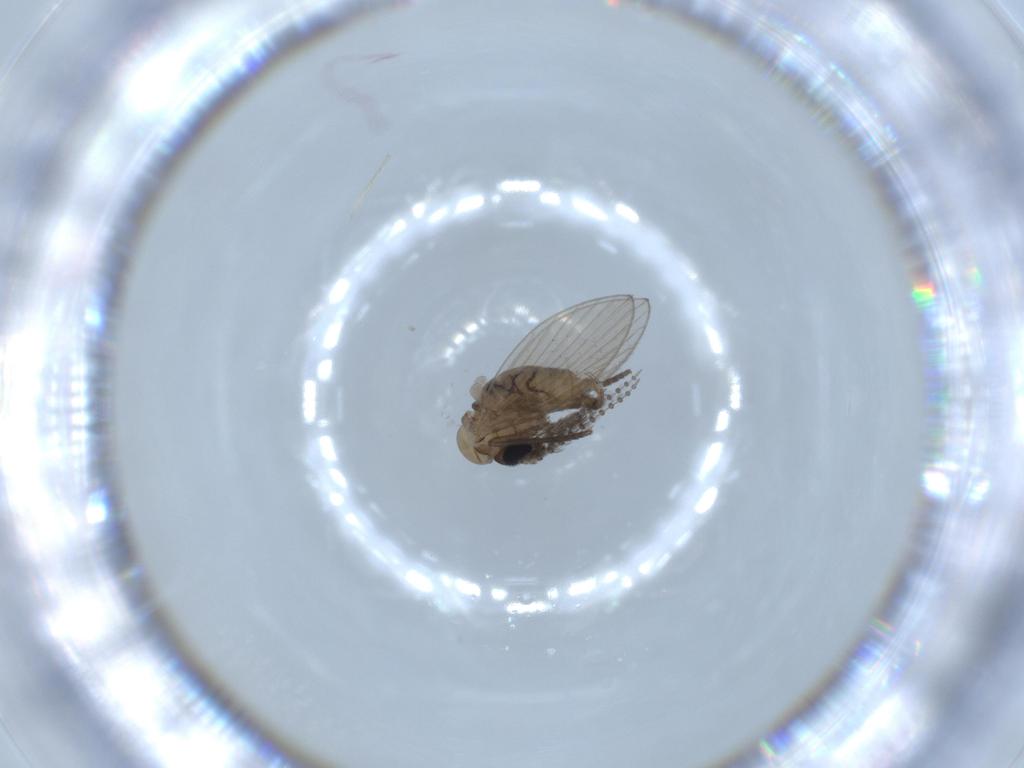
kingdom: Animalia
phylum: Arthropoda
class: Insecta
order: Diptera
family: Psychodidae
